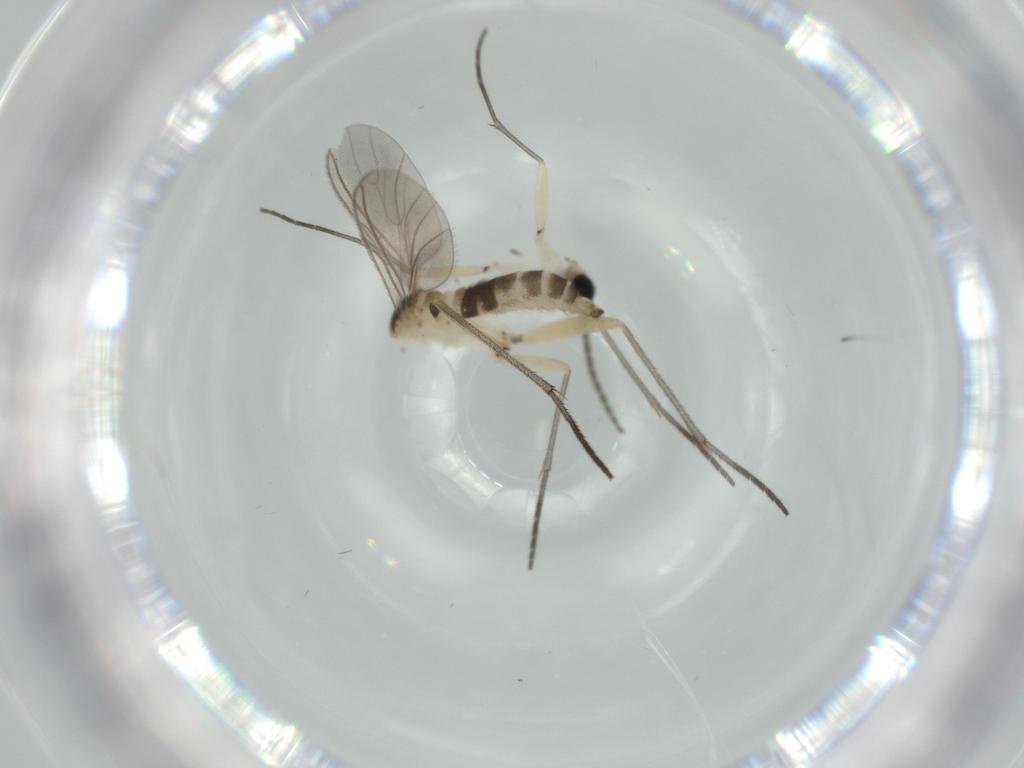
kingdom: Animalia
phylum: Arthropoda
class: Insecta
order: Diptera
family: Sciaridae
